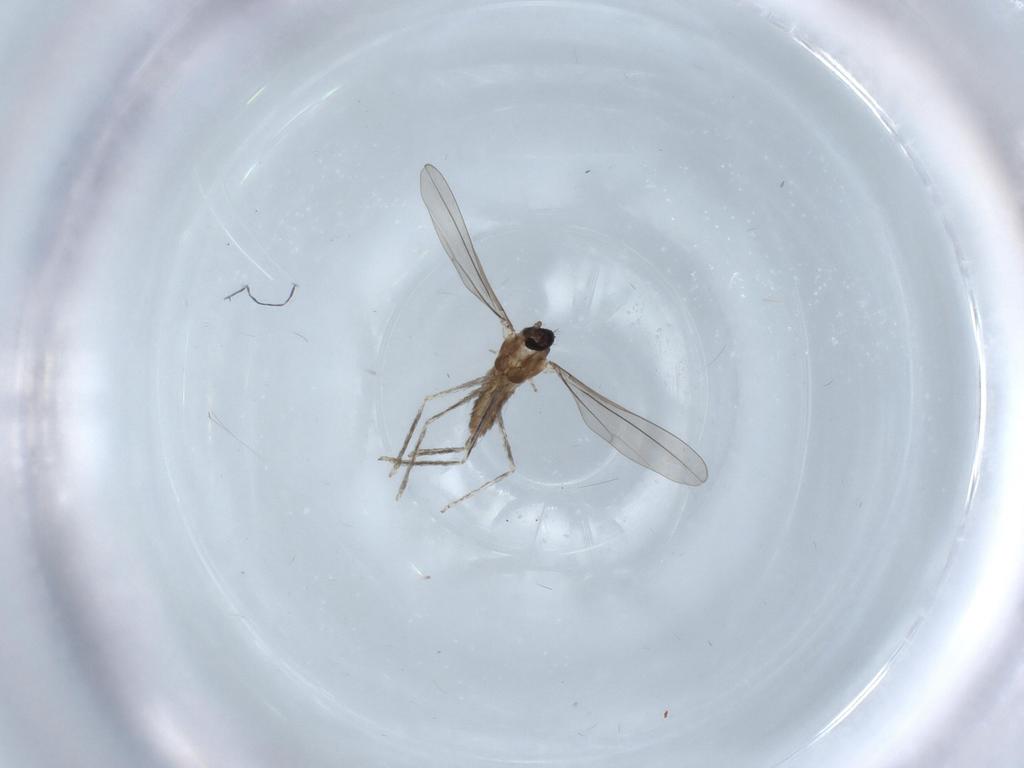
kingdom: Animalia
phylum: Arthropoda
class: Insecta
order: Diptera
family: Cecidomyiidae
